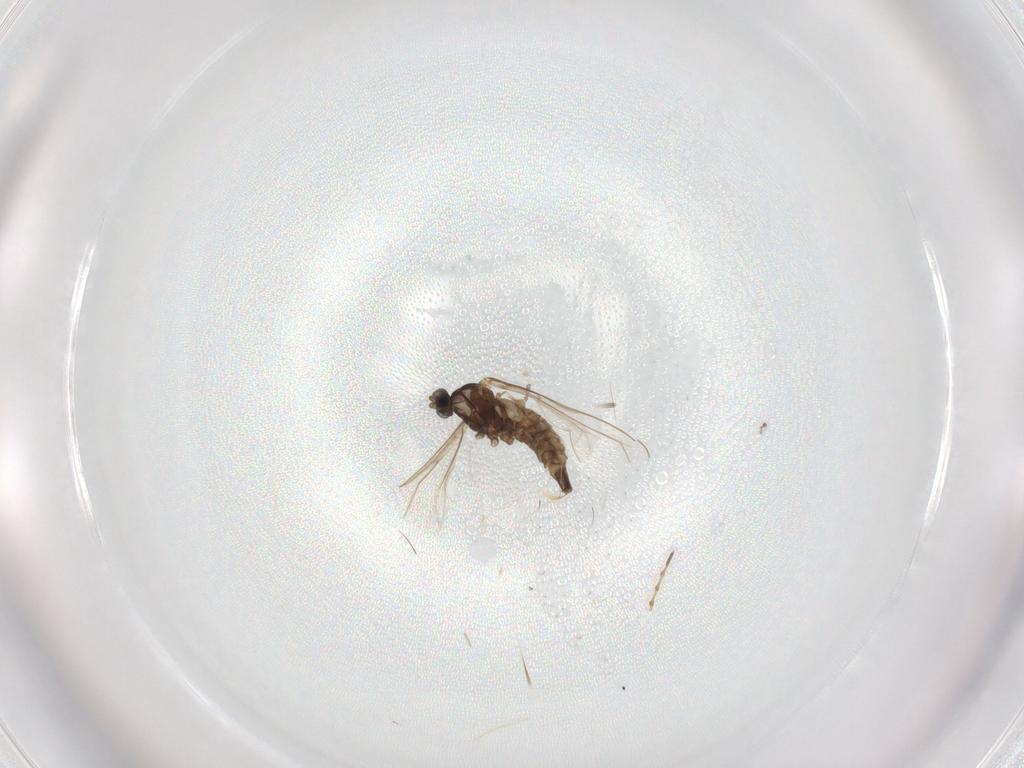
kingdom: Animalia
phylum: Arthropoda
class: Insecta
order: Diptera
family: Cecidomyiidae
